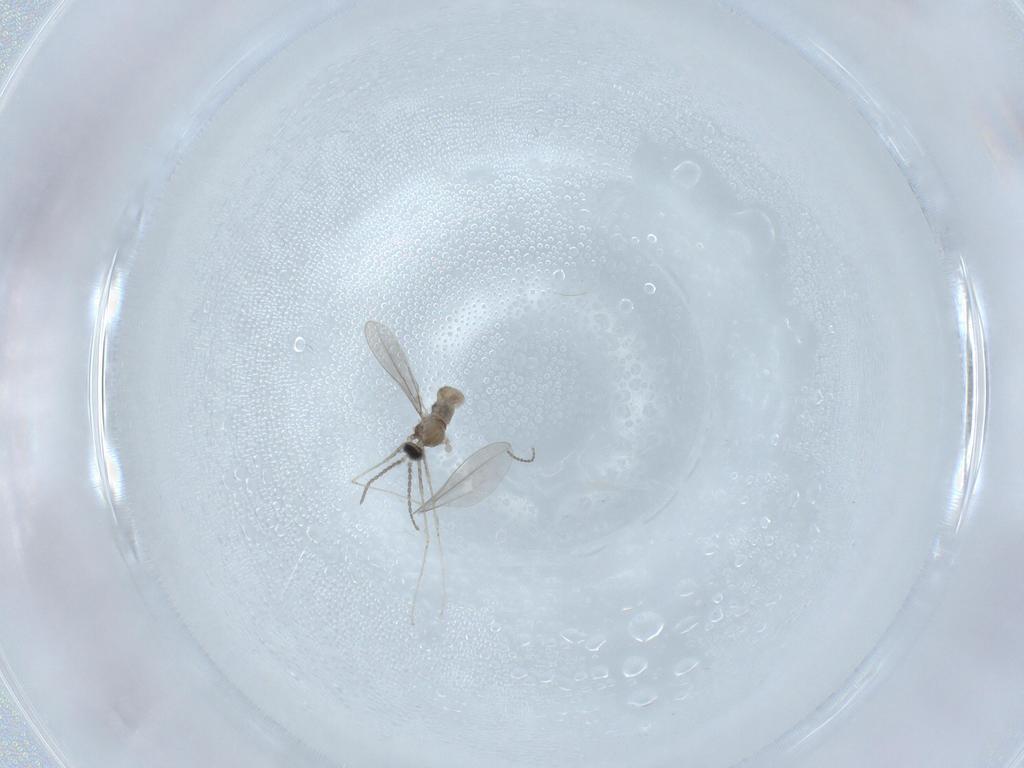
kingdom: Animalia
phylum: Arthropoda
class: Insecta
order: Diptera
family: Cecidomyiidae
